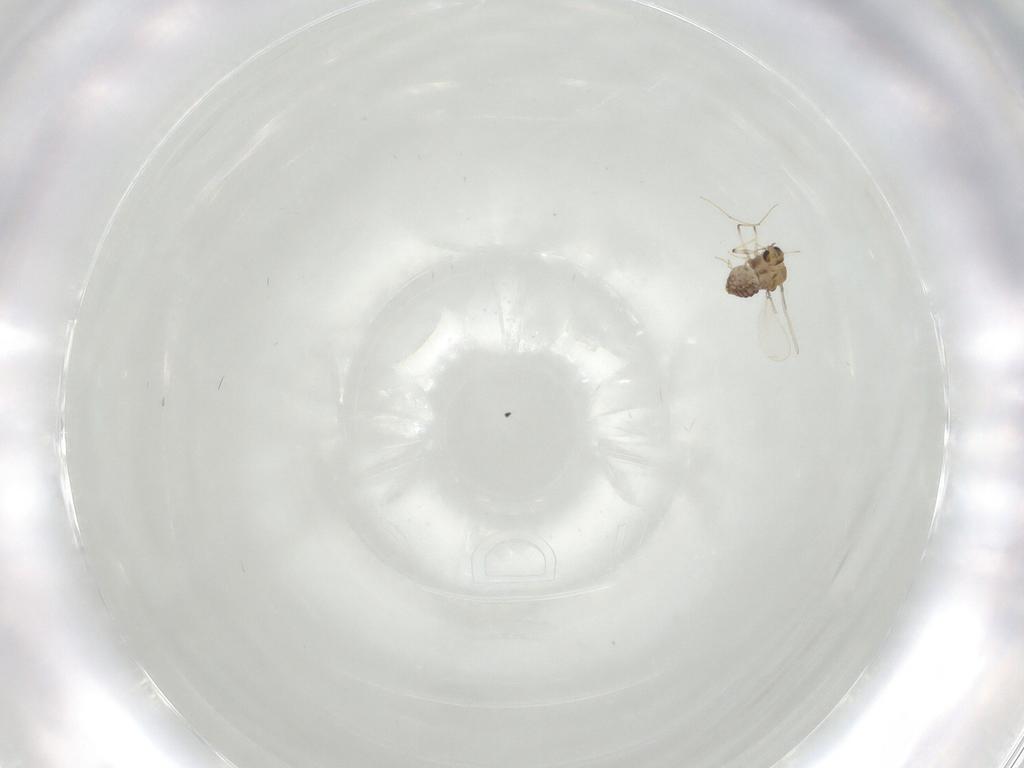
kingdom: Animalia
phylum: Arthropoda
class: Insecta
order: Diptera
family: Chironomidae
